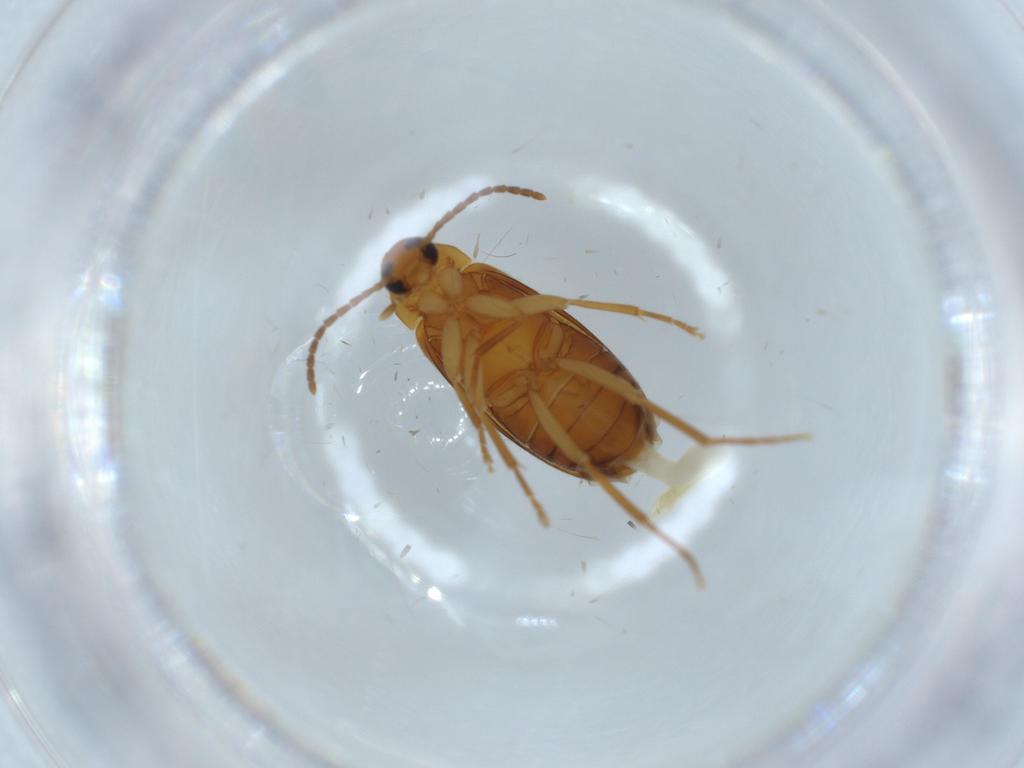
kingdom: Animalia
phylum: Arthropoda
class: Insecta
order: Coleoptera
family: Scraptiidae
